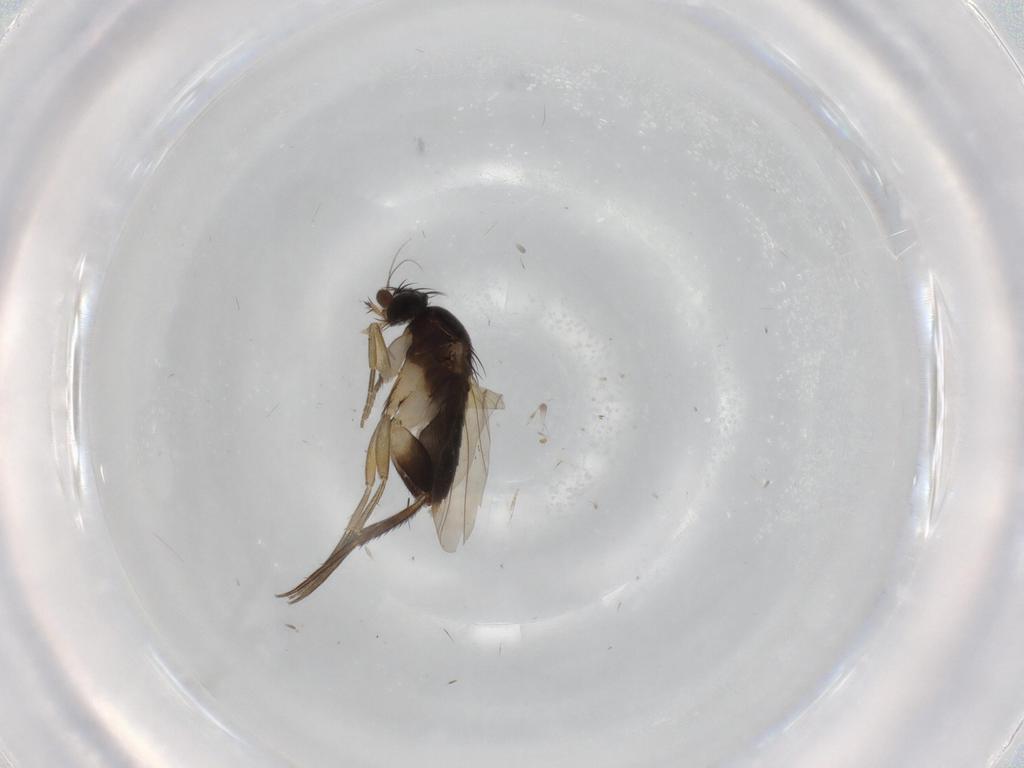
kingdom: Animalia
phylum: Arthropoda
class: Insecta
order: Diptera
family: Phoridae
